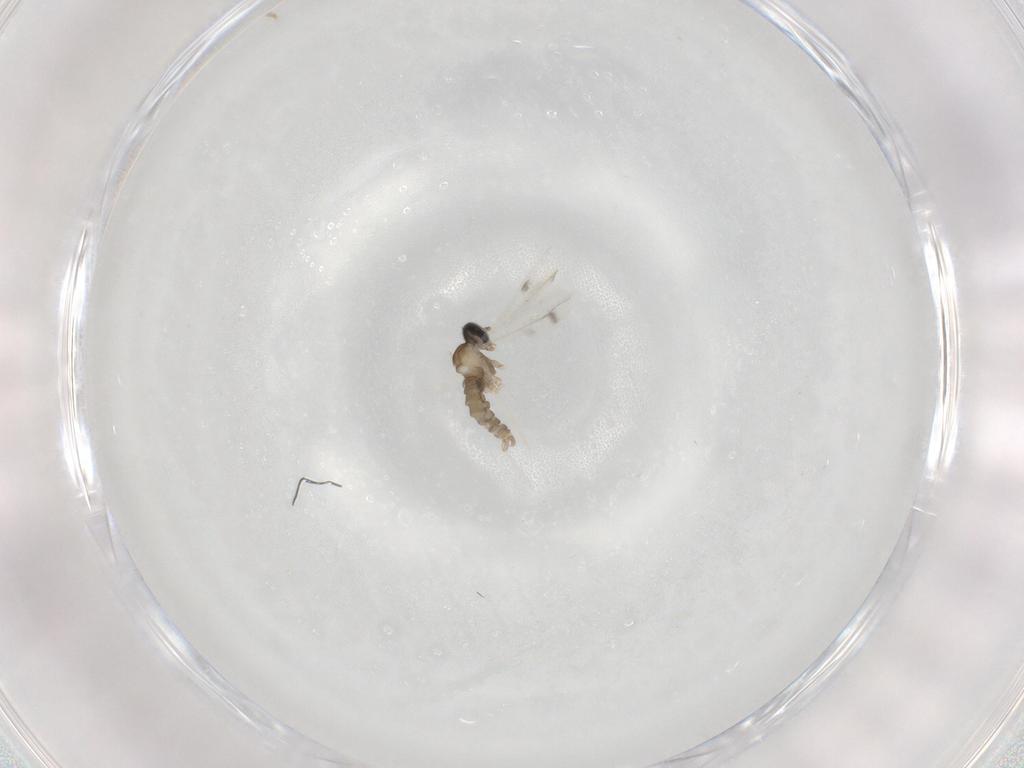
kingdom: Animalia
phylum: Arthropoda
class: Insecta
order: Diptera
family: Cecidomyiidae
